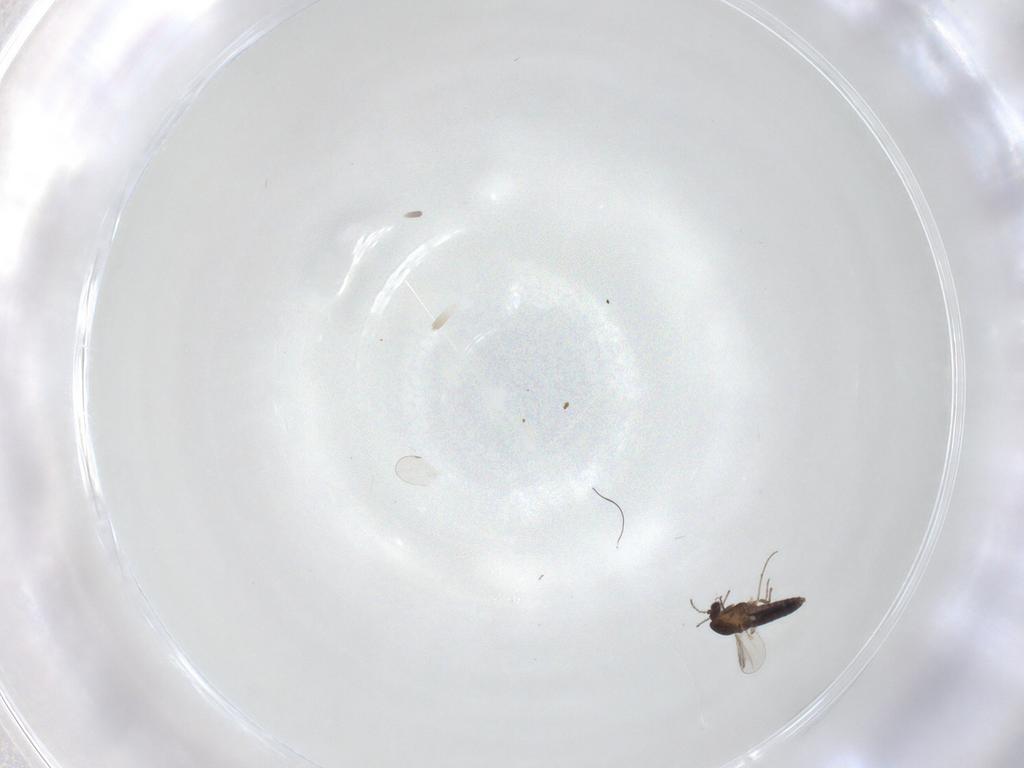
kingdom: Animalia
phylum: Arthropoda
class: Insecta
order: Diptera
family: Chironomidae
